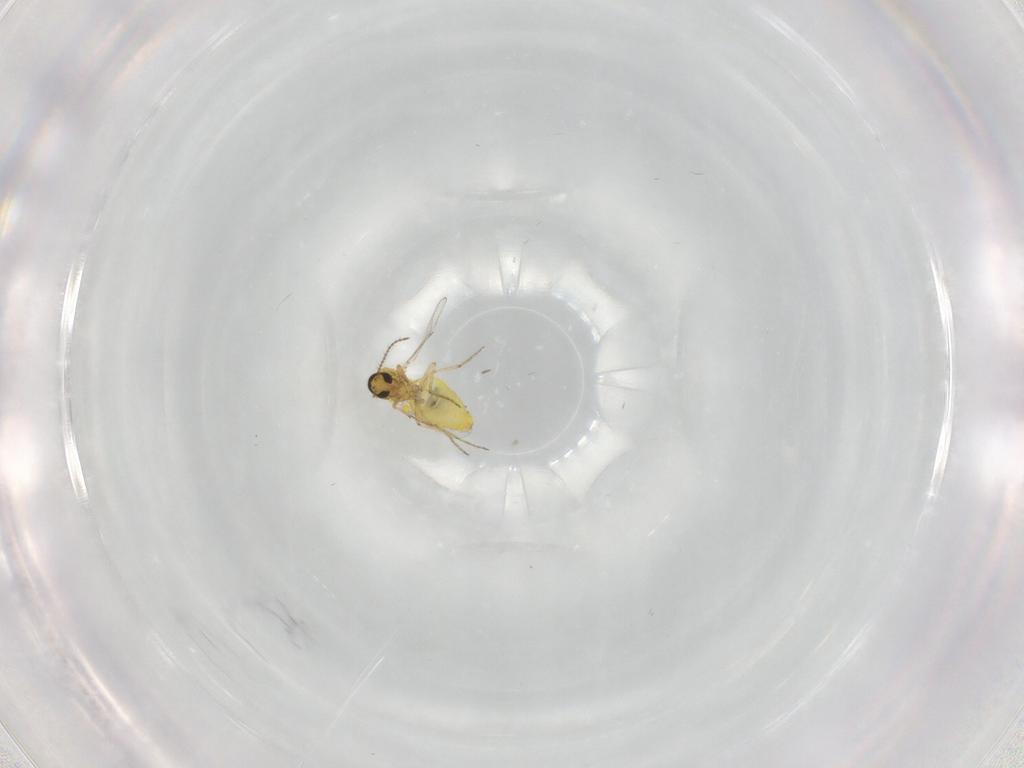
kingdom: Animalia
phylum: Arthropoda
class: Insecta
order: Diptera
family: Ceratopogonidae
